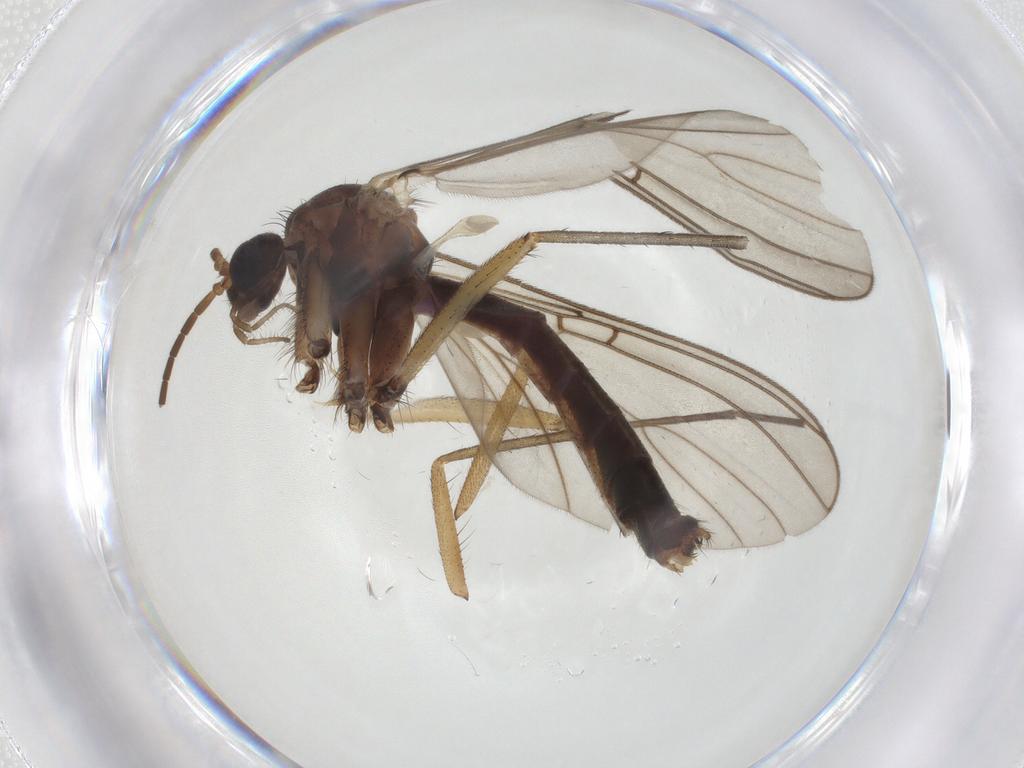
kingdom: Animalia
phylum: Arthropoda
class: Insecta
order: Diptera
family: Mycetophilidae
